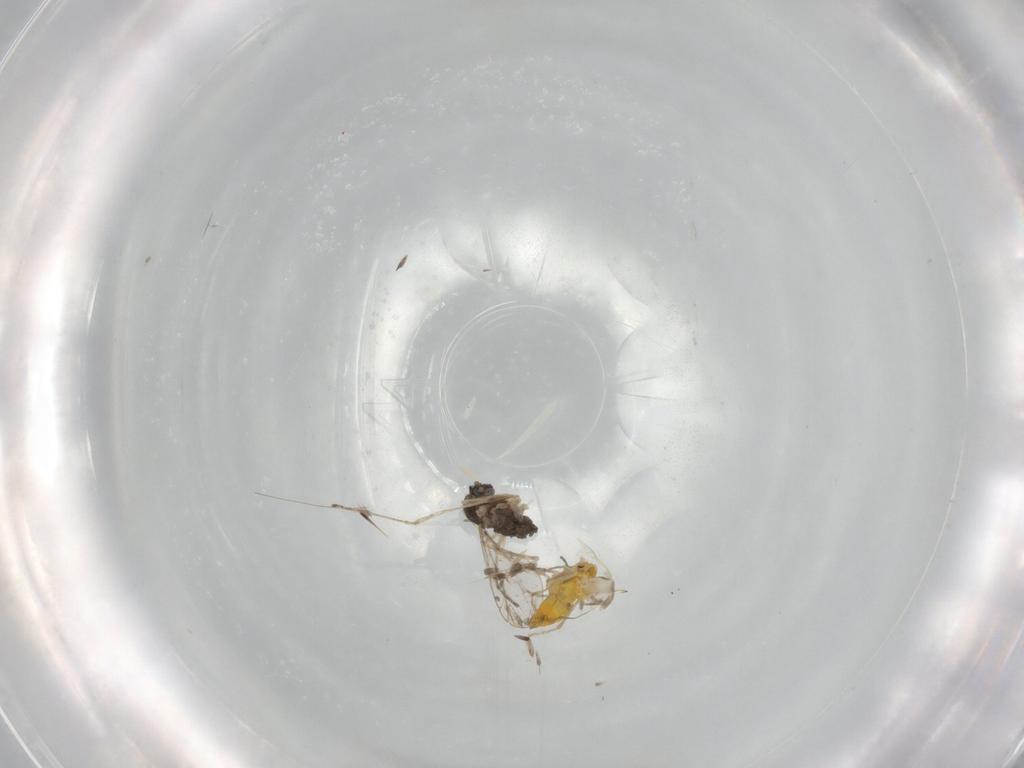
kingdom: Animalia
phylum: Arthropoda
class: Insecta
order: Diptera
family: Cecidomyiidae
